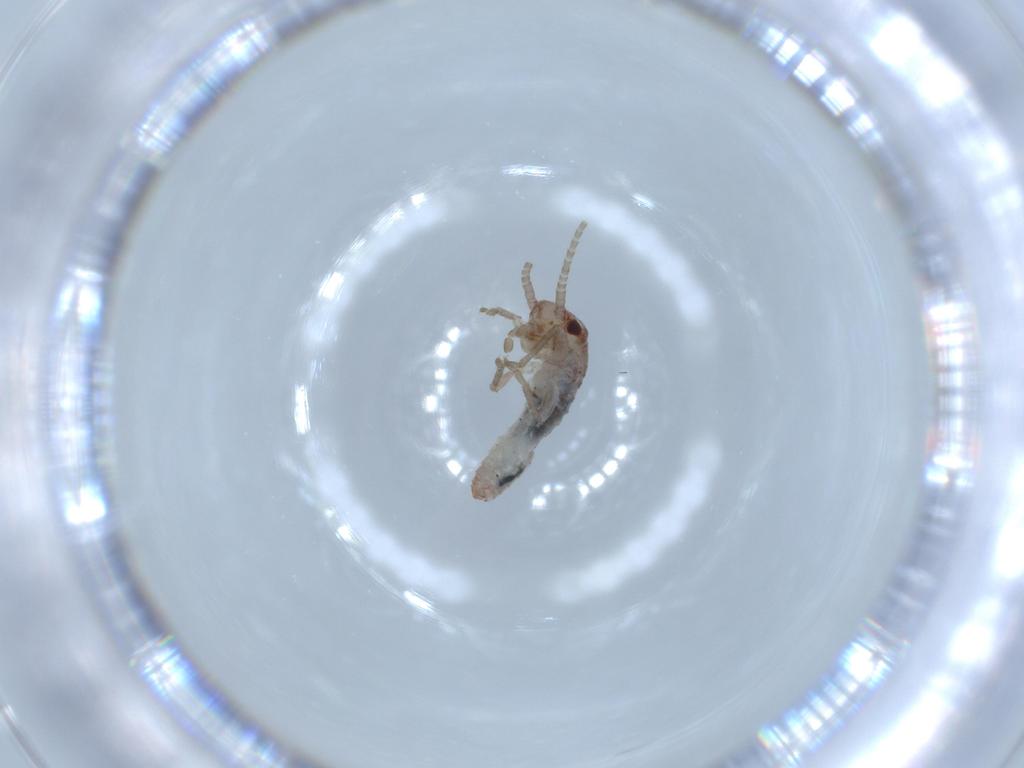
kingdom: Animalia
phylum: Arthropoda
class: Insecta
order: Orthoptera
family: Mogoplistidae
